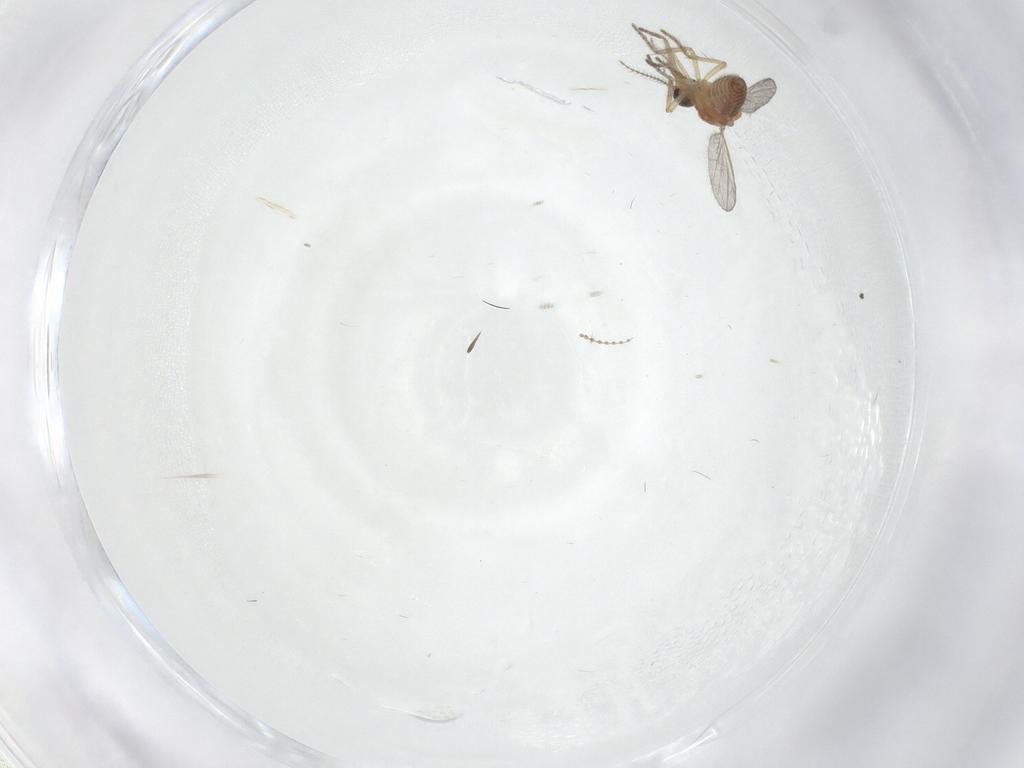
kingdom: Animalia
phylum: Arthropoda
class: Insecta
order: Diptera
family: Sciaridae
